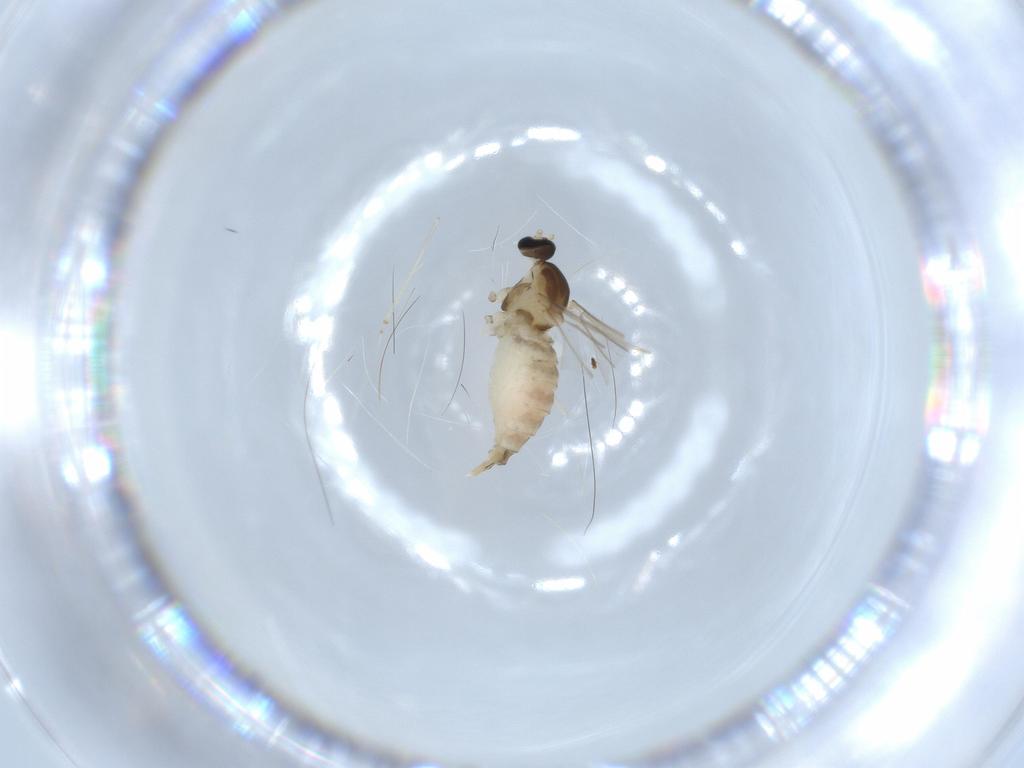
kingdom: Animalia
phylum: Arthropoda
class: Insecta
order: Diptera
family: Cecidomyiidae
